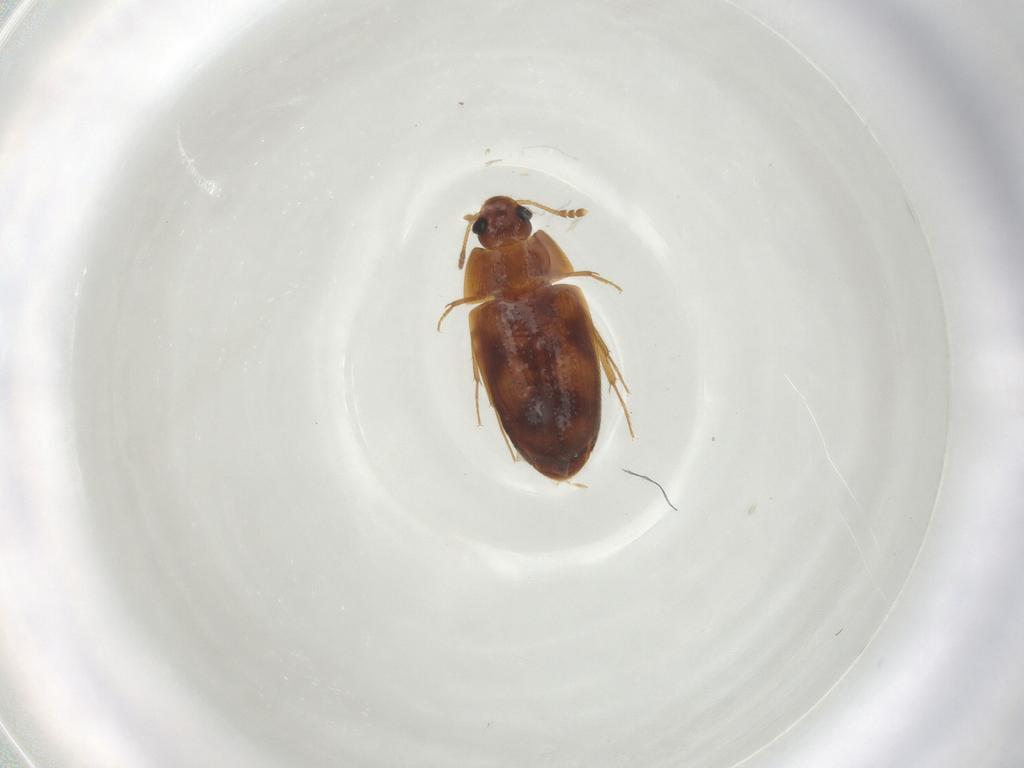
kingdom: Animalia
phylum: Arthropoda
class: Insecta
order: Coleoptera
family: Mycetophagidae
